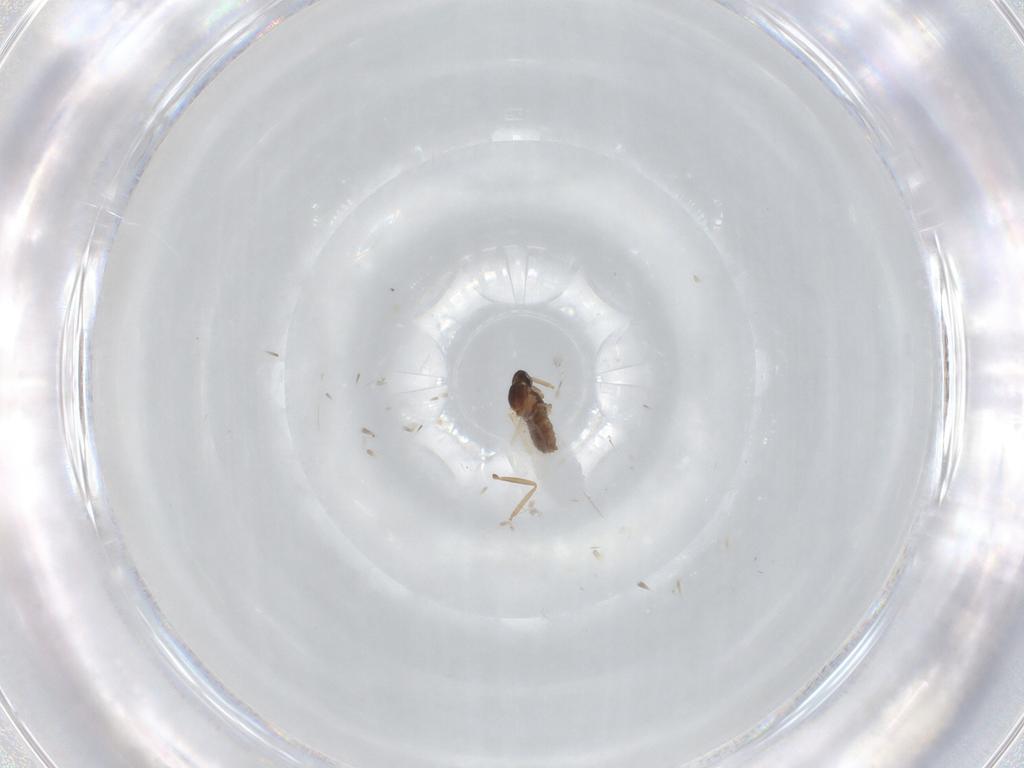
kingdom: Animalia
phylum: Arthropoda
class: Insecta
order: Diptera
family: Cecidomyiidae
